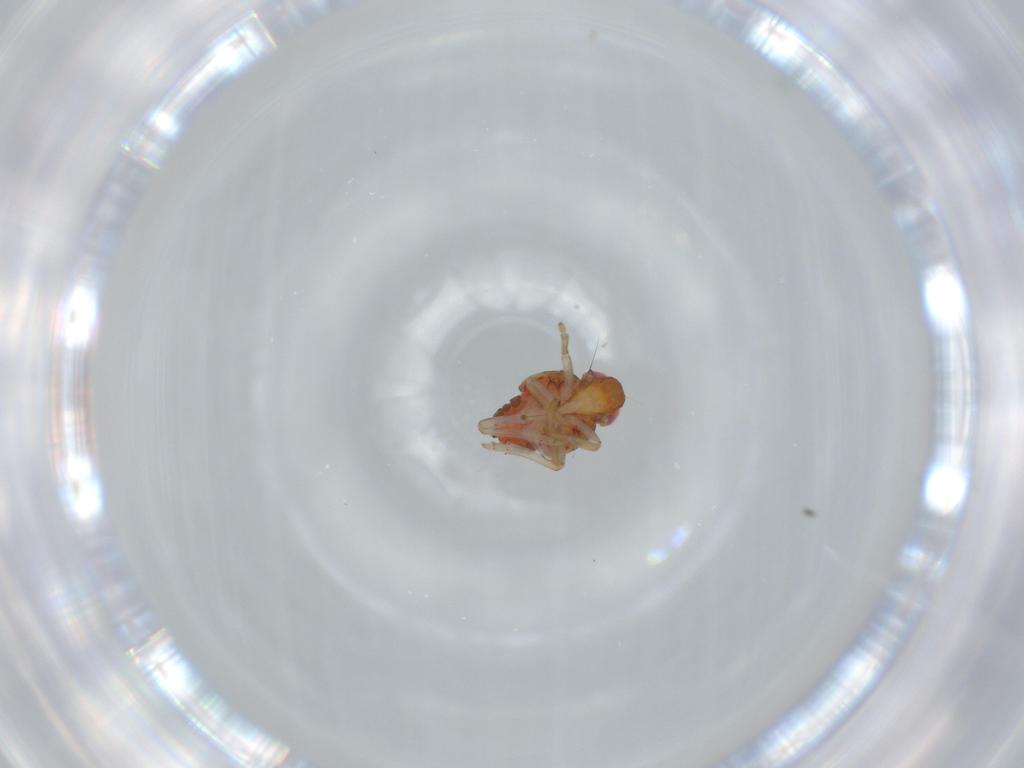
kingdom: Animalia
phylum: Arthropoda
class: Insecta
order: Hemiptera
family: Issidae
